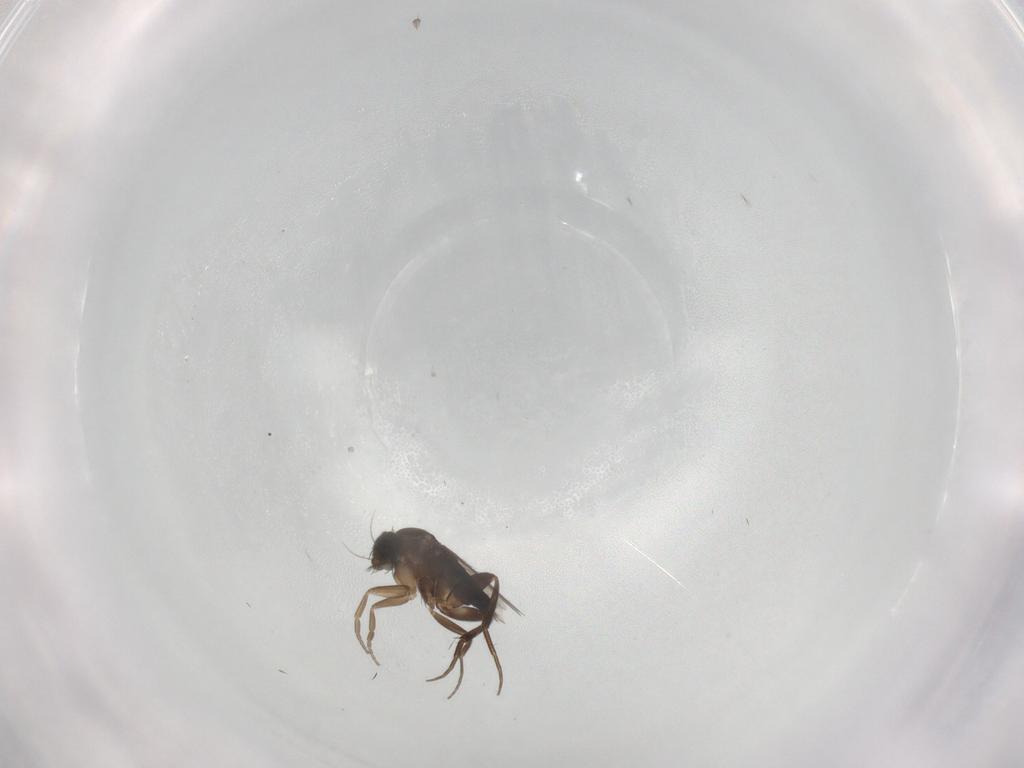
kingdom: Animalia
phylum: Arthropoda
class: Insecta
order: Diptera
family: Phoridae
